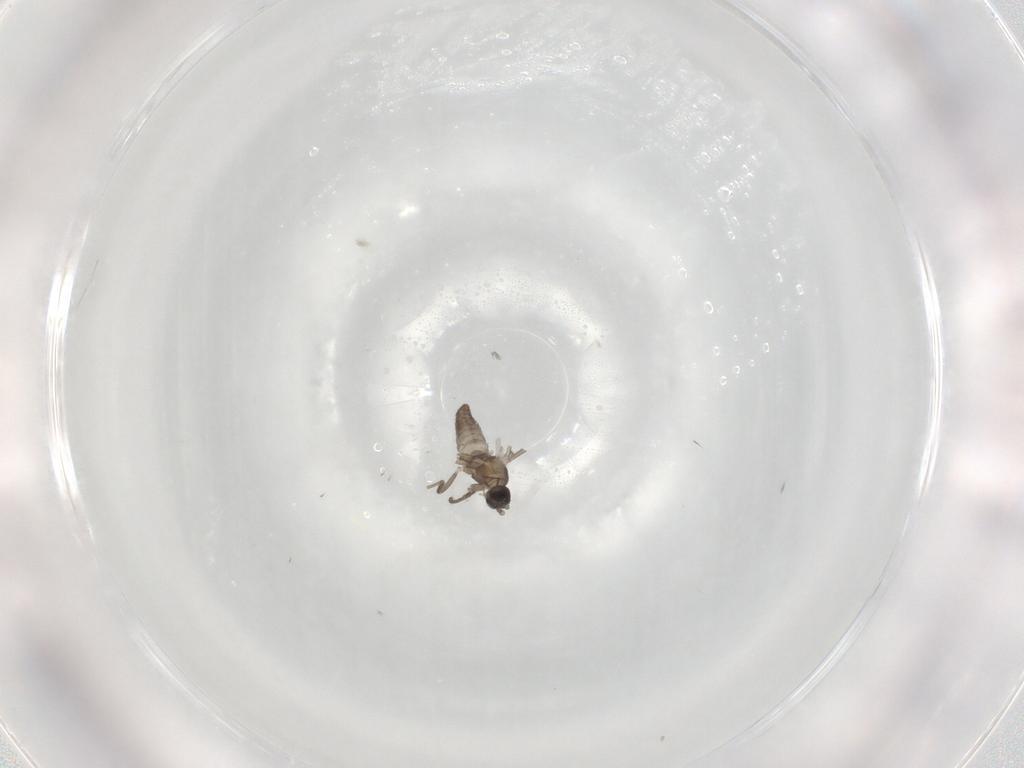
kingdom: Animalia
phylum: Arthropoda
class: Insecta
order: Diptera
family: Cecidomyiidae
